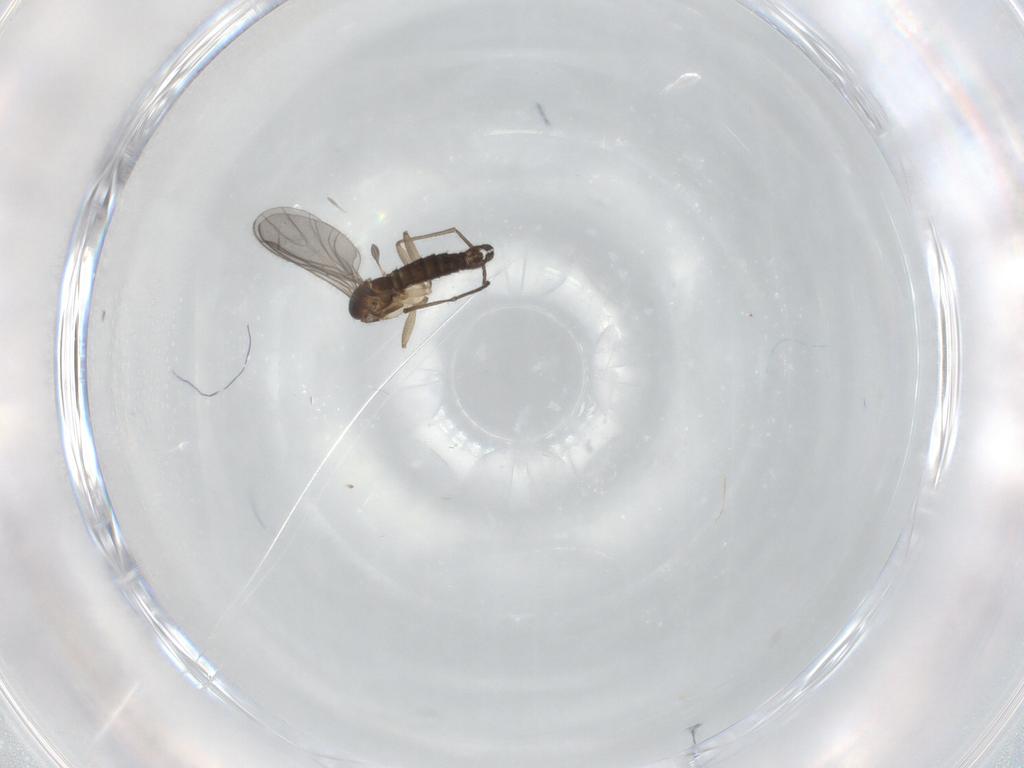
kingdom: Animalia
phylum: Arthropoda
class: Insecta
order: Diptera
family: Sciaridae
